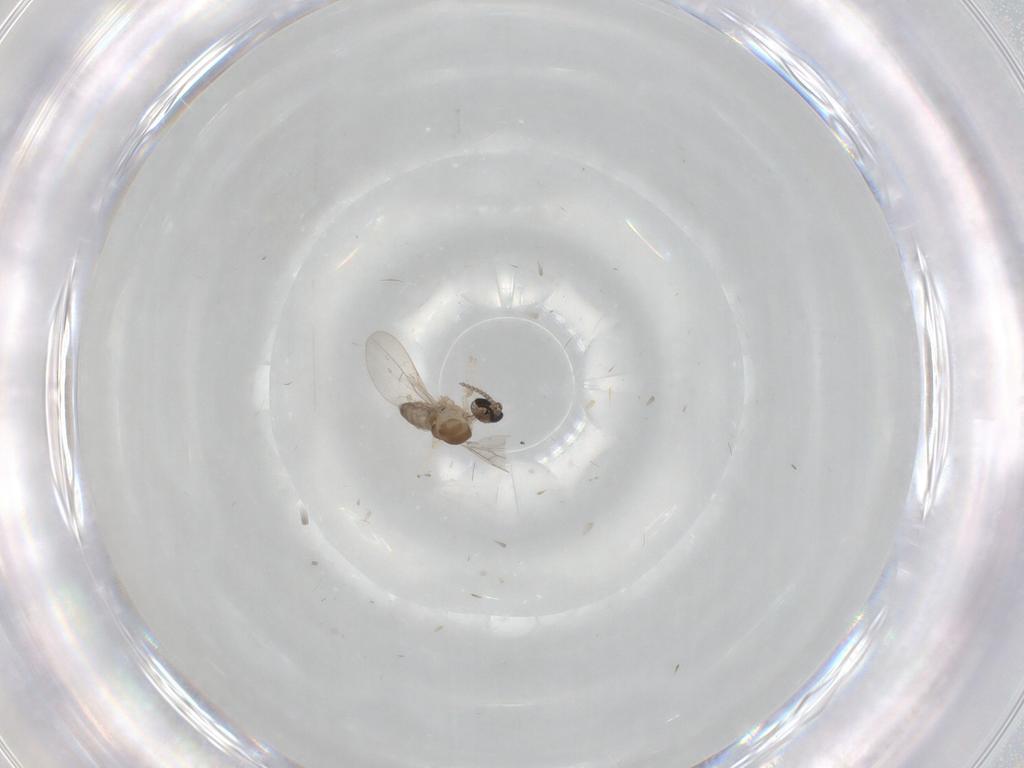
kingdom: Animalia
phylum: Arthropoda
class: Insecta
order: Diptera
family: Cecidomyiidae
